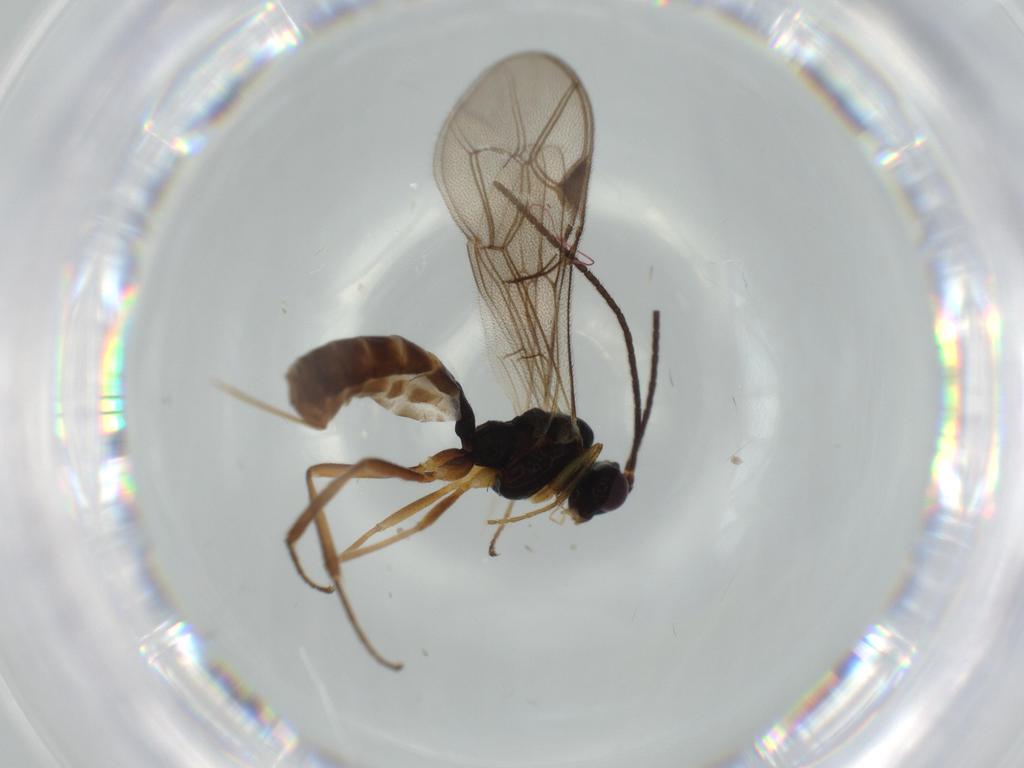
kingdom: Animalia
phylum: Arthropoda
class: Insecta
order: Hymenoptera
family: Ichneumonidae
